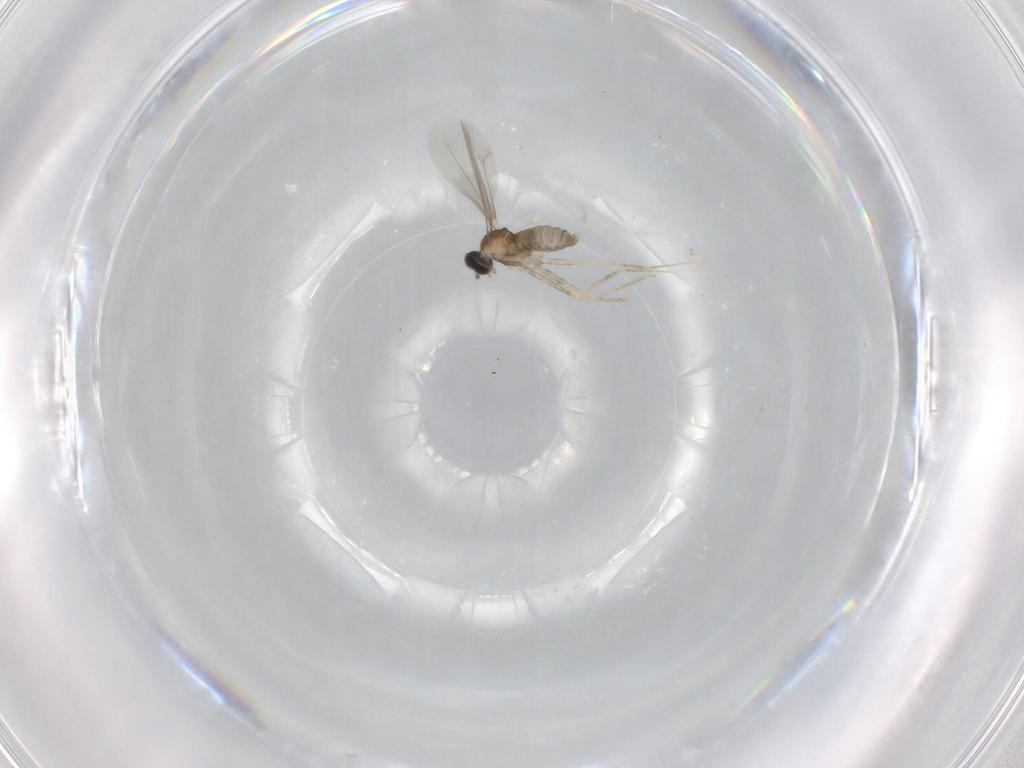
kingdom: Animalia
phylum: Arthropoda
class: Insecta
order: Diptera
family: Cecidomyiidae
